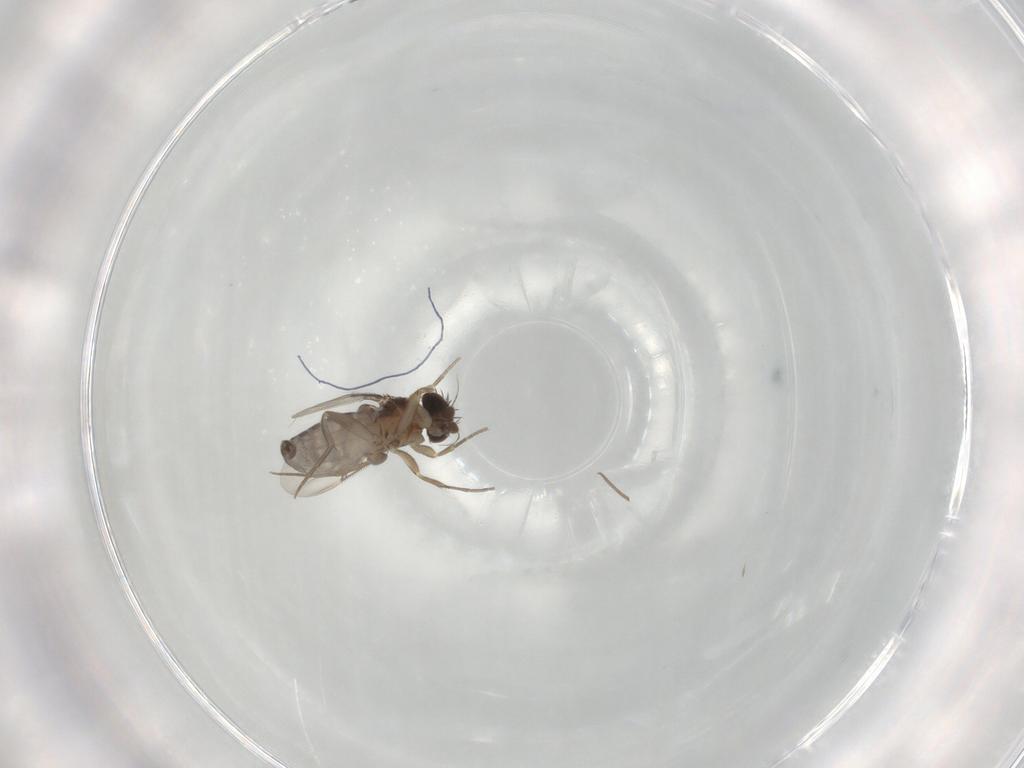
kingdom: Animalia
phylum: Arthropoda
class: Insecta
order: Diptera
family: Phoridae
